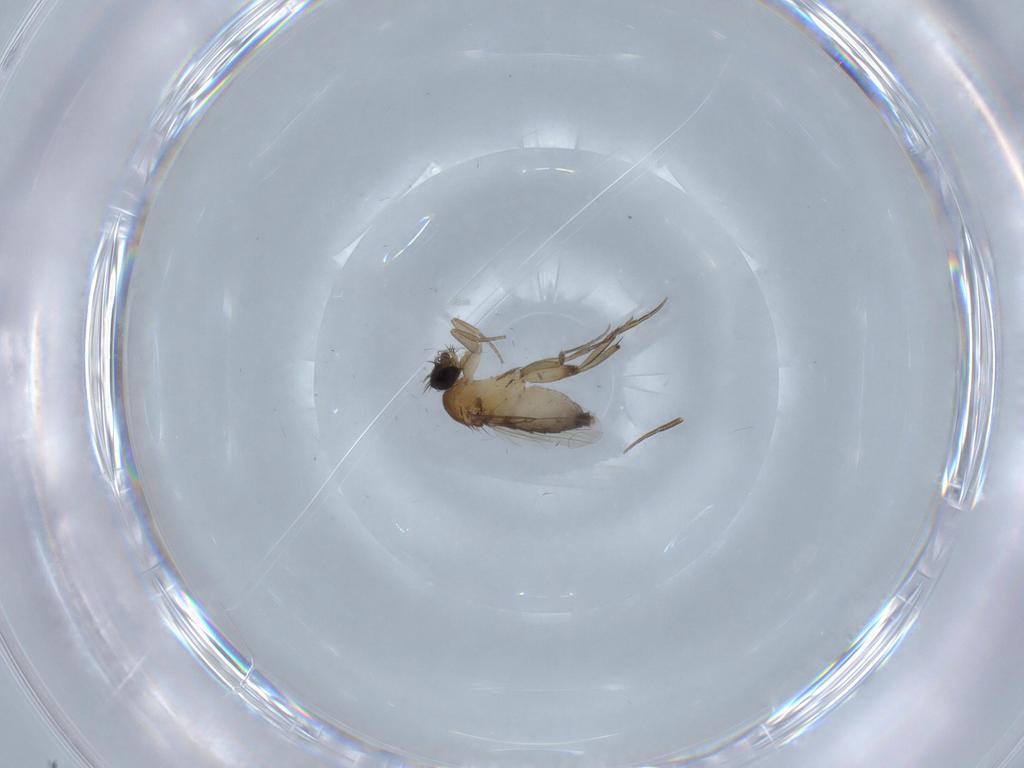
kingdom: Animalia
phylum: Arthropoda
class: Insecta
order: Diptera
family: Phoridae
